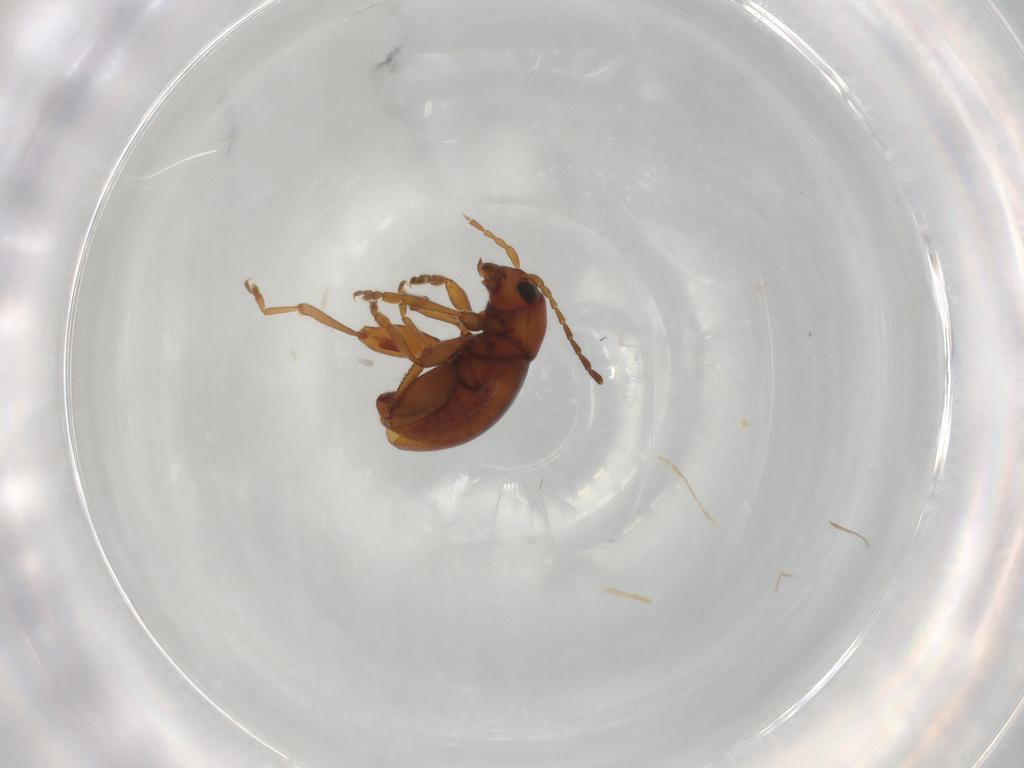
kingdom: Animalia
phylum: Arthropoda
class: Insecta
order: Coleoptera
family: Chrysomelidae
